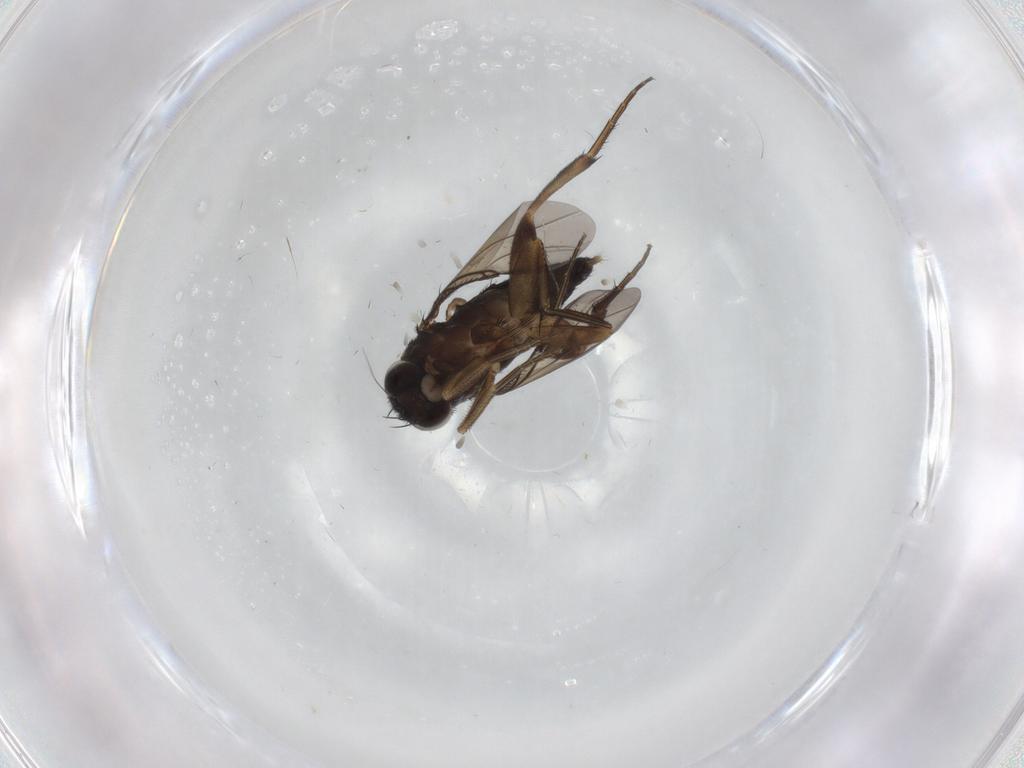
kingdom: Animalia
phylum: Arthropoda
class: Insecta
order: Diptera
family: Phoridae
